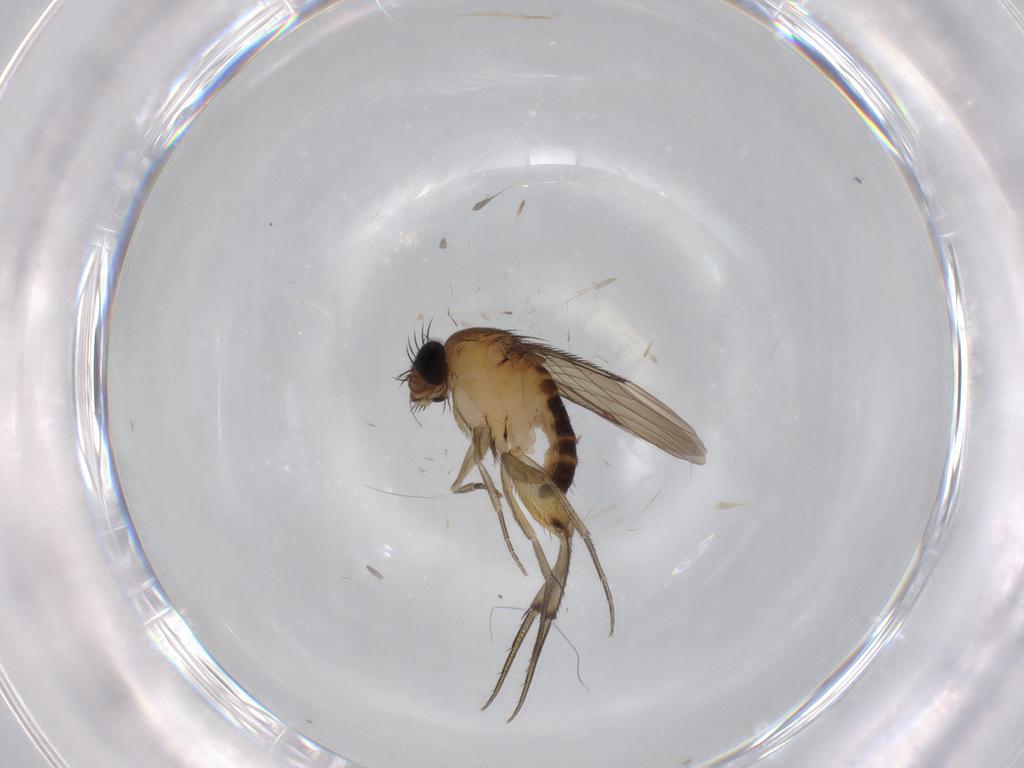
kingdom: Animalia
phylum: Arthropoda
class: Insecta
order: Diptera
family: Phoridae
